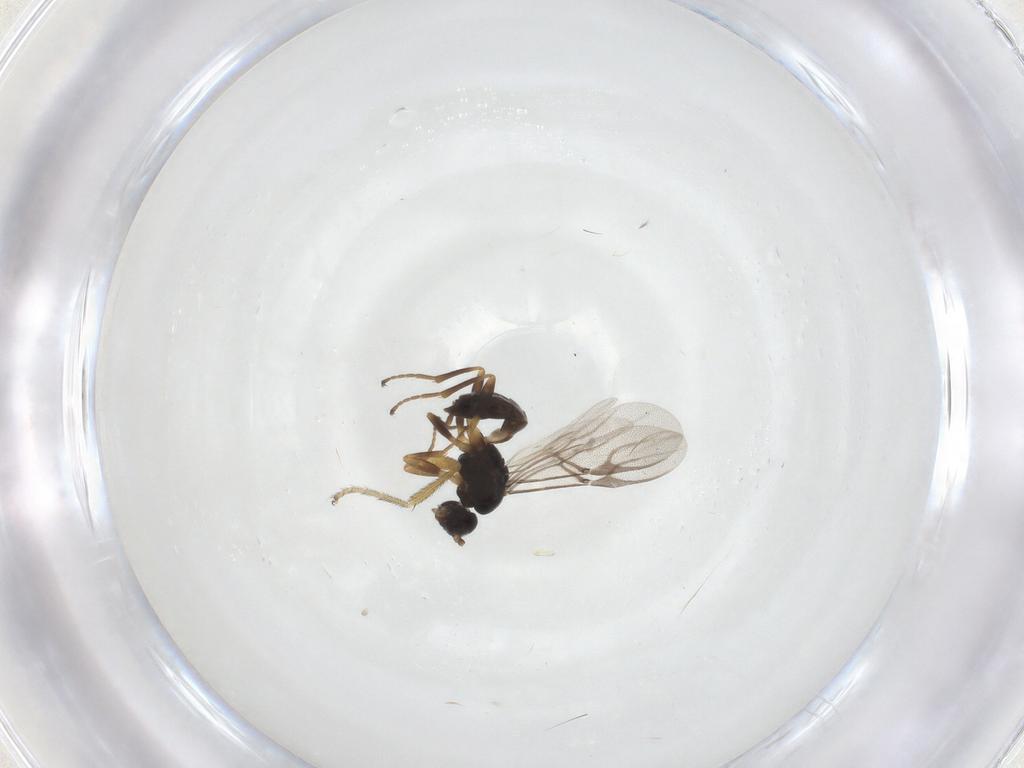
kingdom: Animalia
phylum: Arthropoda
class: Insecta
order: Hymenoptera
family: Braconidae
